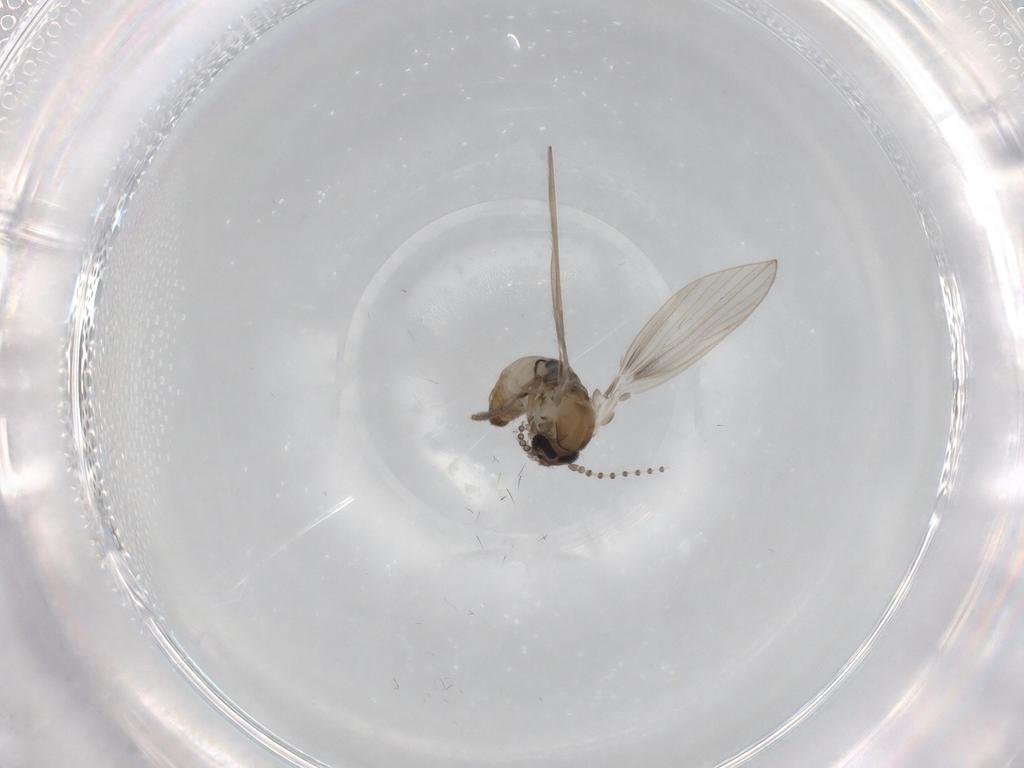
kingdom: Animalia
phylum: Arthropoda
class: Insecta
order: Diptera
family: Psychodidae
